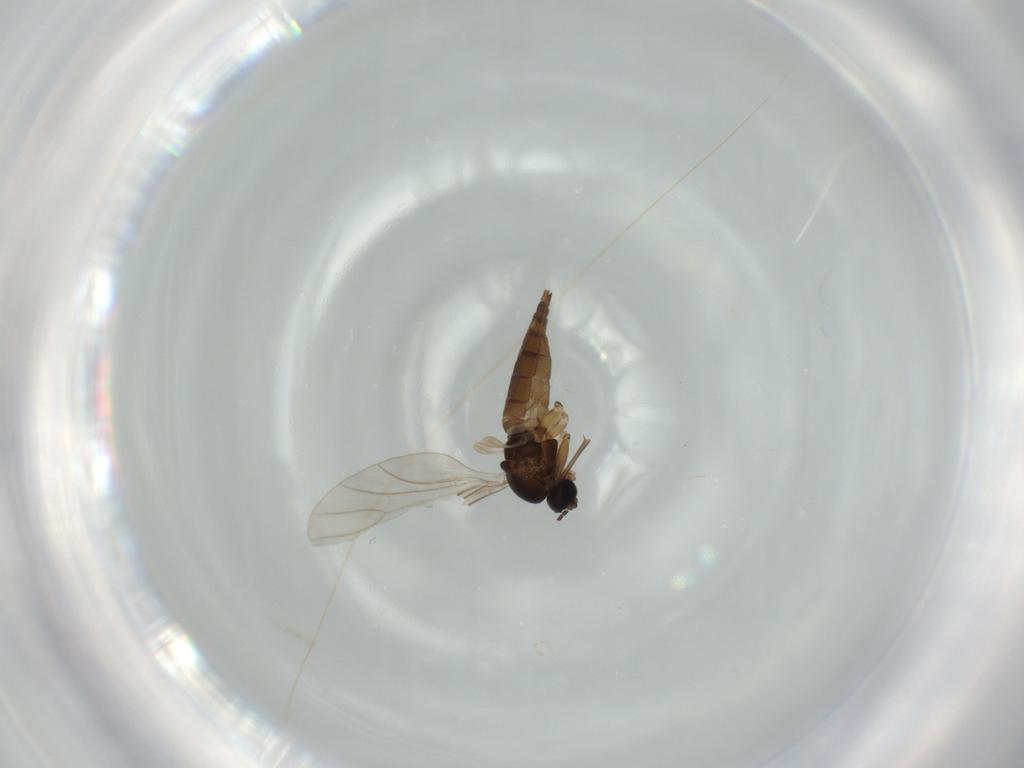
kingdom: Animalia
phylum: Arthropoda
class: Insecta
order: Diptera
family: Sciaridae
